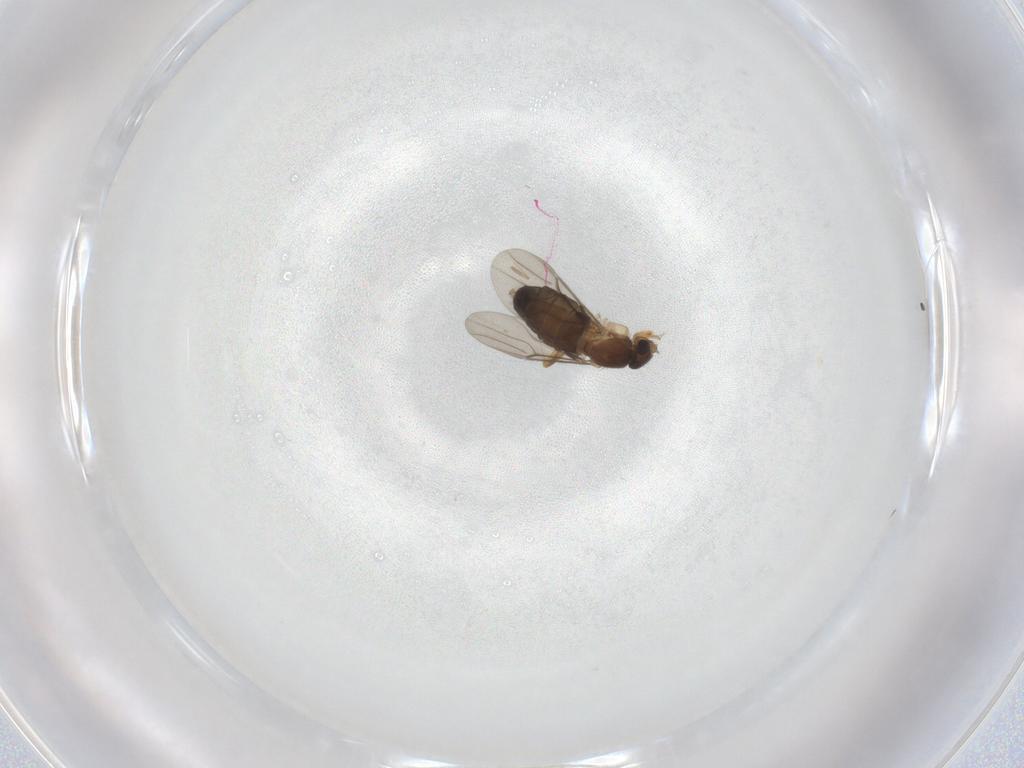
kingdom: Animalia
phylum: Arthropoda
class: Insecta
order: Diptera
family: Phoridae
